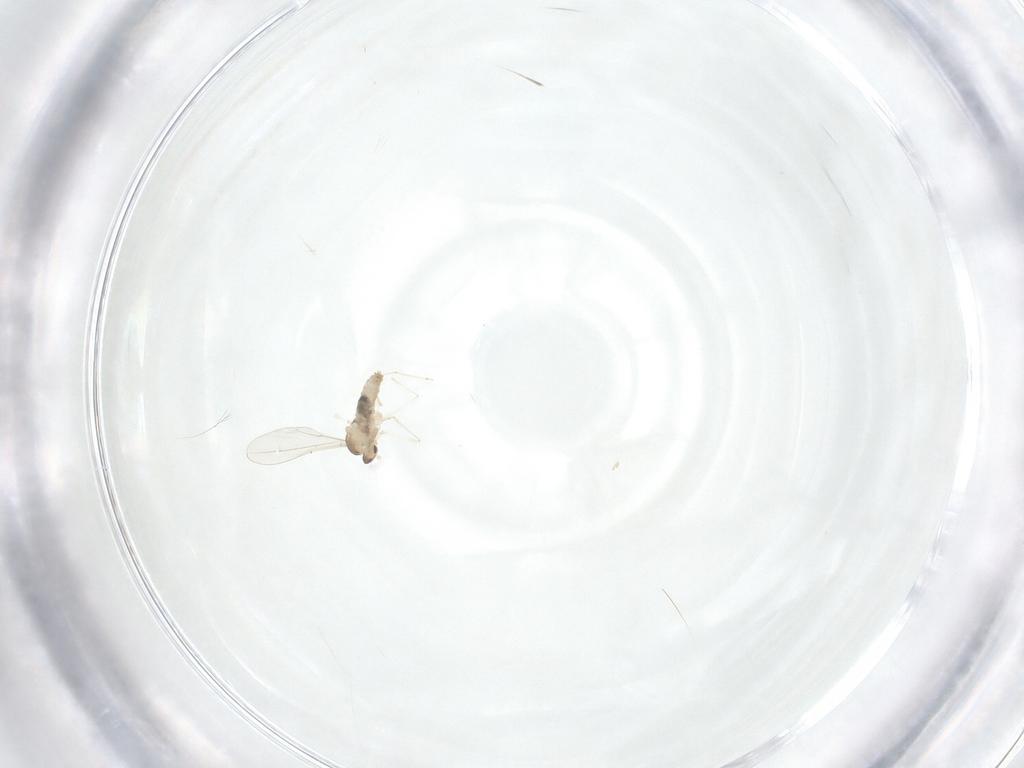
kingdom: Animalia
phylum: Arthropoda
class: Insecta
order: Diptera
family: Cecidomyiidae
